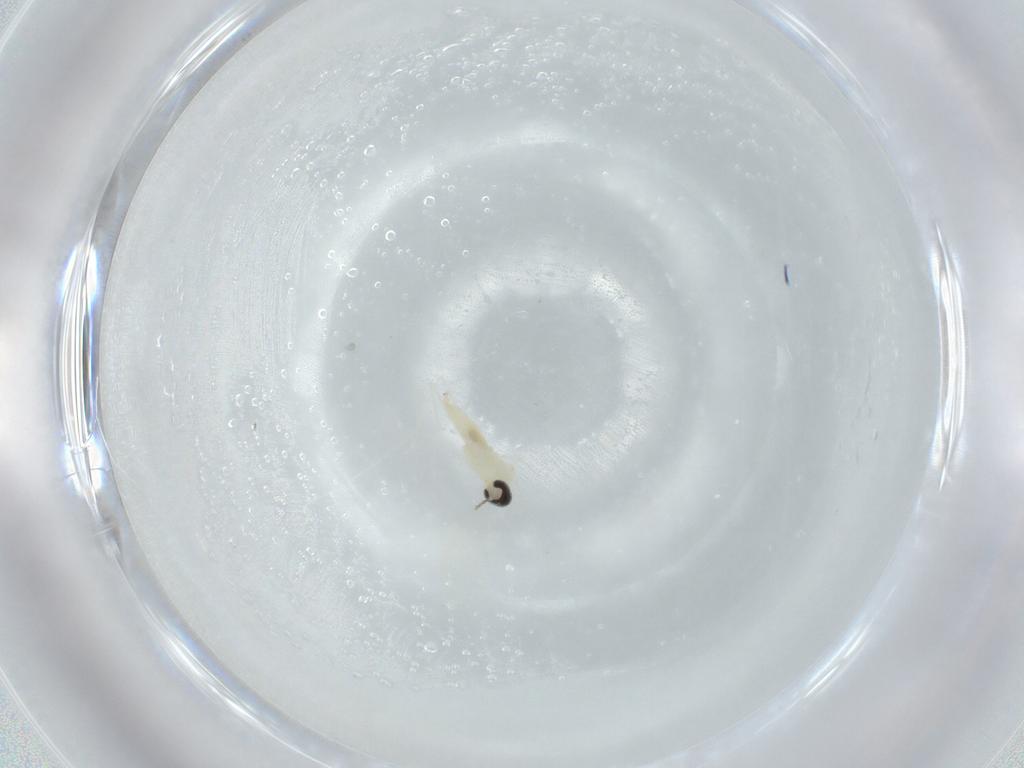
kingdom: Animalia
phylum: Arthropoda
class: Insecta
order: Diptera
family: Cecidomyiidae
